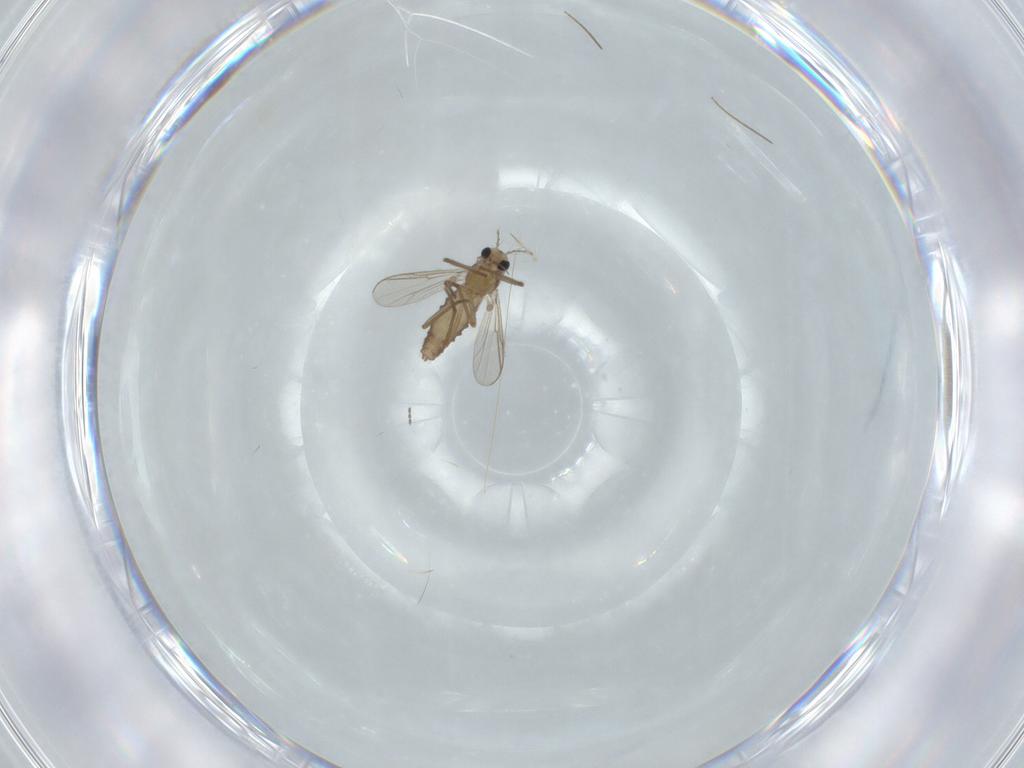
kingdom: Animalia
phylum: Arthropoda
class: Insecta
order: Diptera
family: Chironomidae
